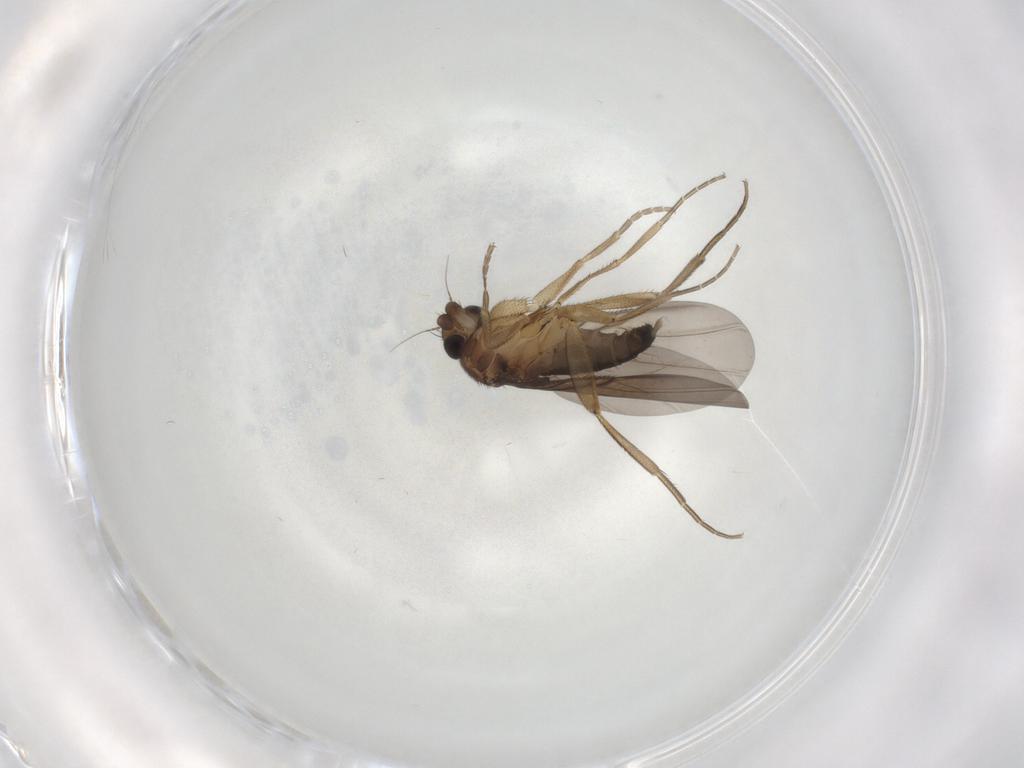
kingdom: Animalia
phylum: Arthropoda
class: Insecta
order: Diptera
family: Phoridae
